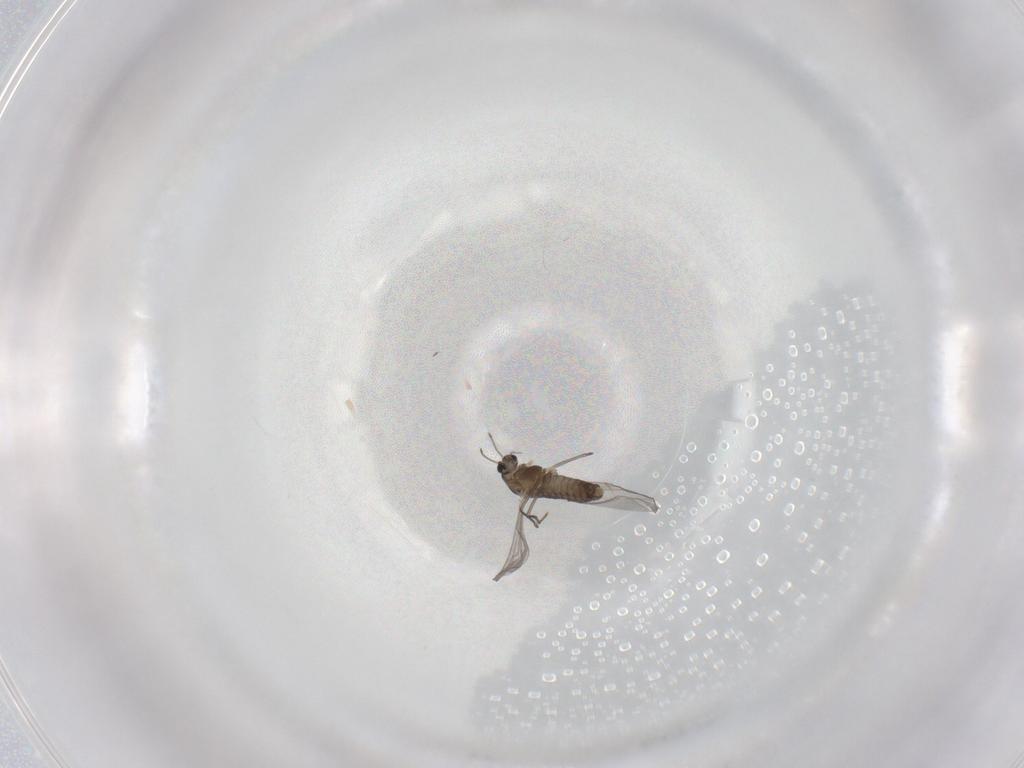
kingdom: Animalia
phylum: Arthropoda
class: Insecta
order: Diptera
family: Chironomidae
